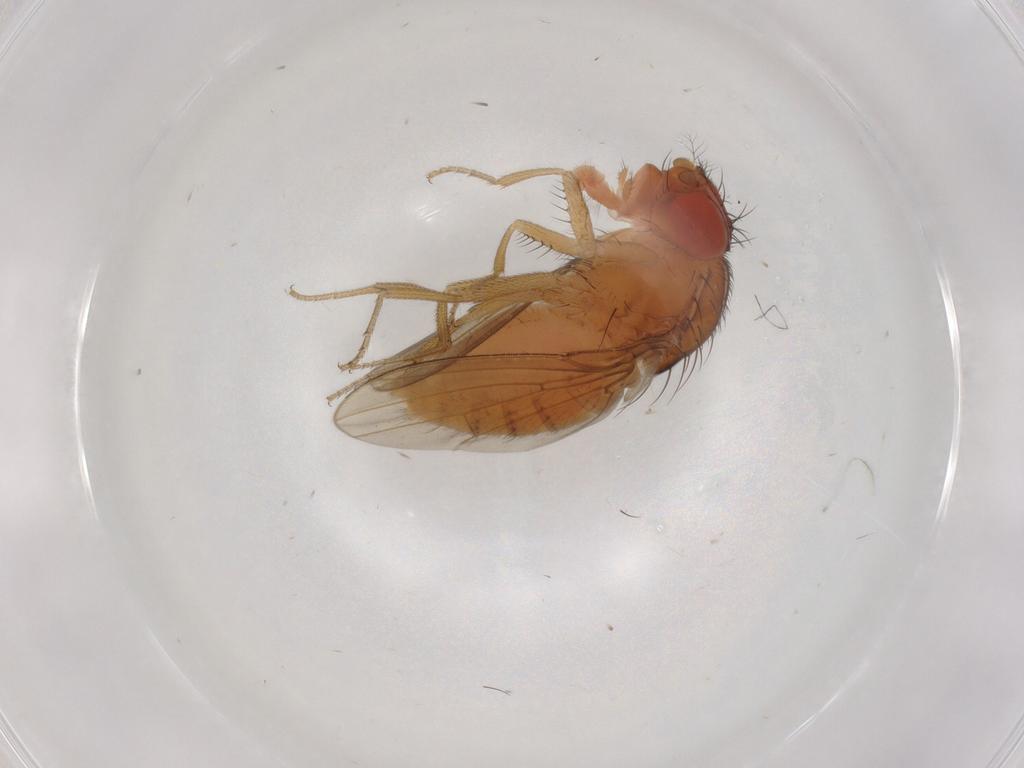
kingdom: Animalia
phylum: Arthropoda
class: Insecta
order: Diptera
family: Drosophilidae
